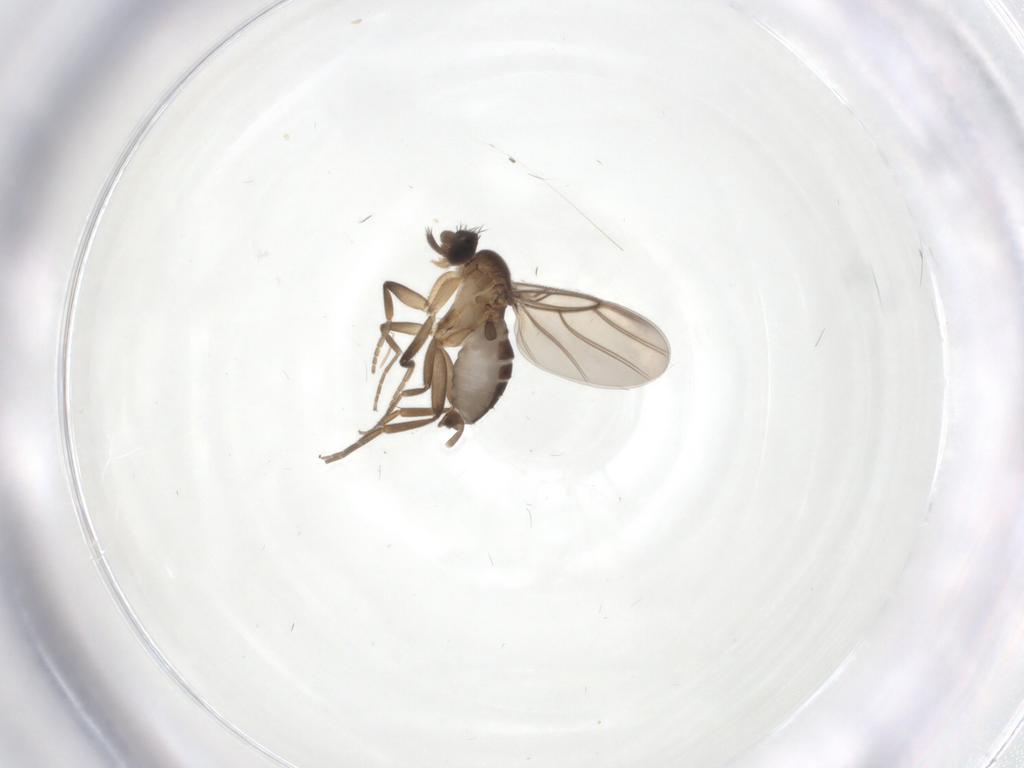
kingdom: Animalia
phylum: Arthropoda
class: Insecta
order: Diptera
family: Phoridae
